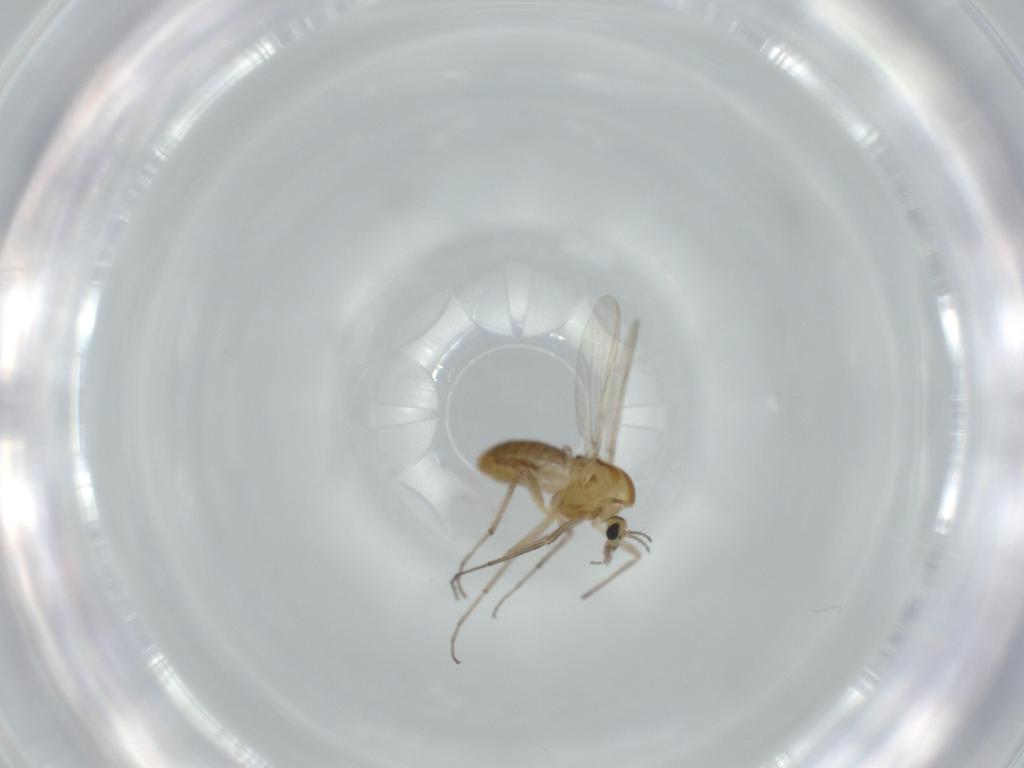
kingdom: Animalia
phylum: Arthropoda
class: Insecta
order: Diptera
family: Chironomidae
